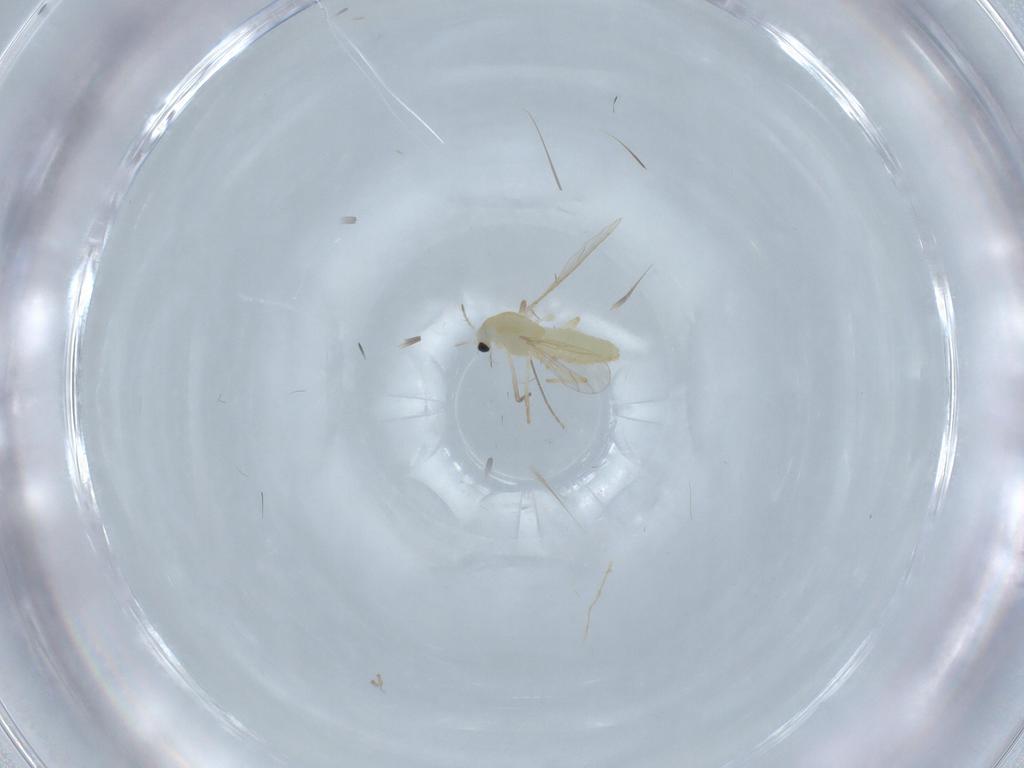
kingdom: Animalia
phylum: Arthropoda
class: Insecta
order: Diptera
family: Chironomidae
